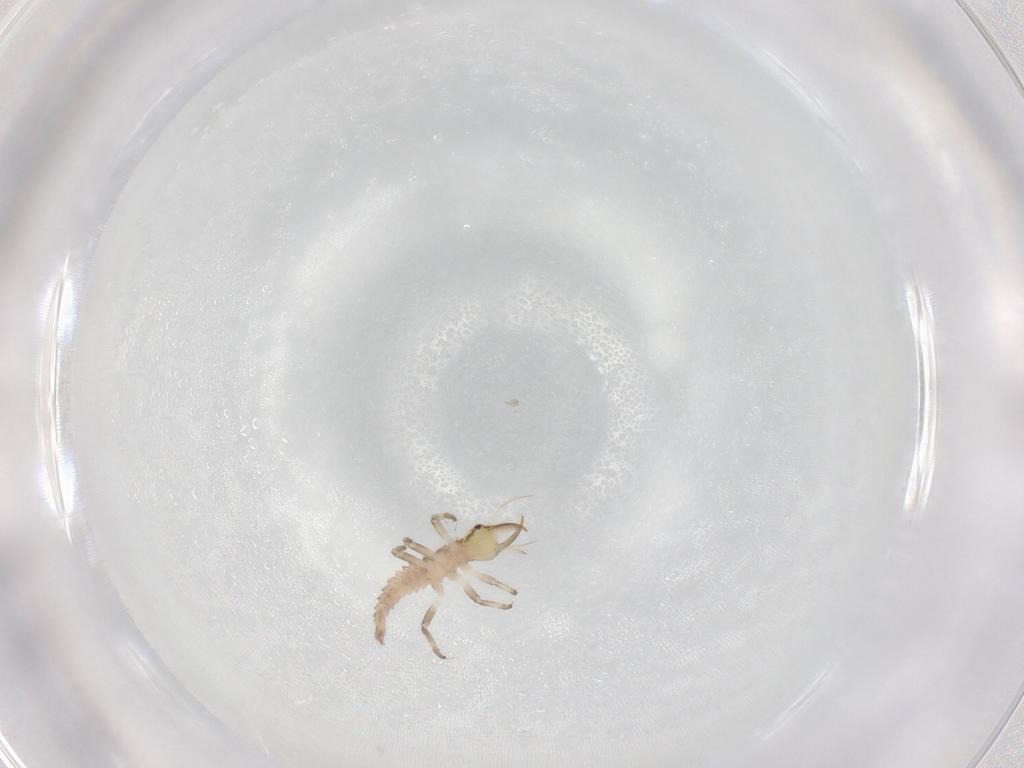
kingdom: Animalia
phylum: Arthropoda
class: Insecta
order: Neuroptera
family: Chrysopidae
